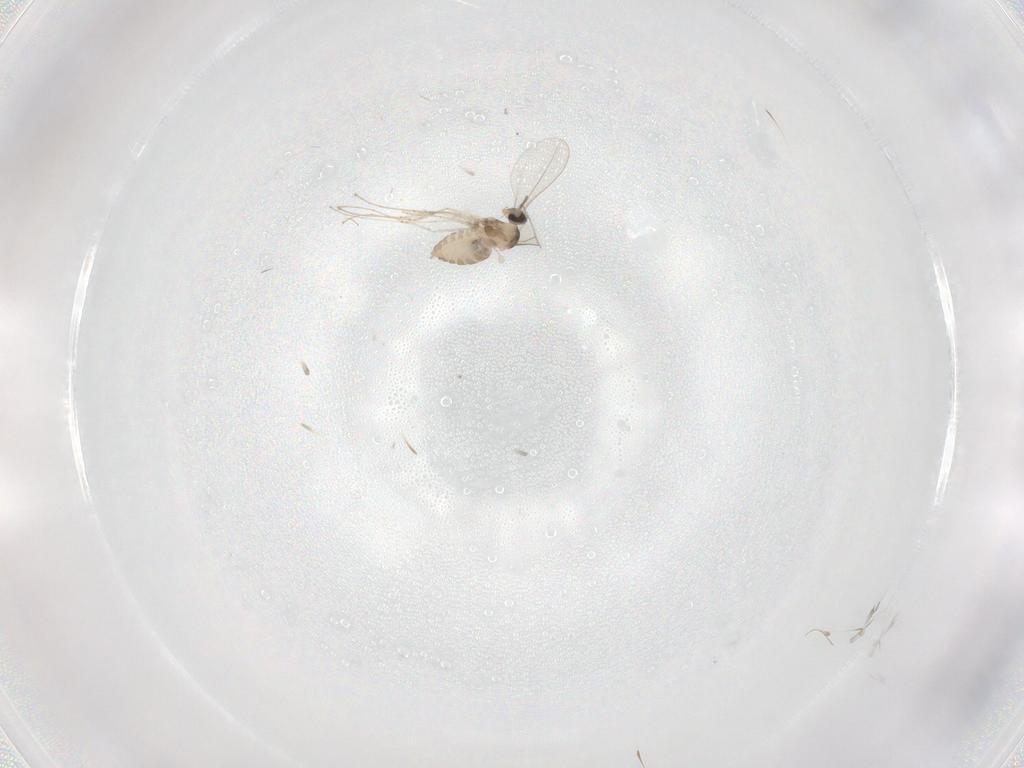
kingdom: Animalia
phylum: Arthropoda
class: Insecta
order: Diptera
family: Cecidomyiidae
